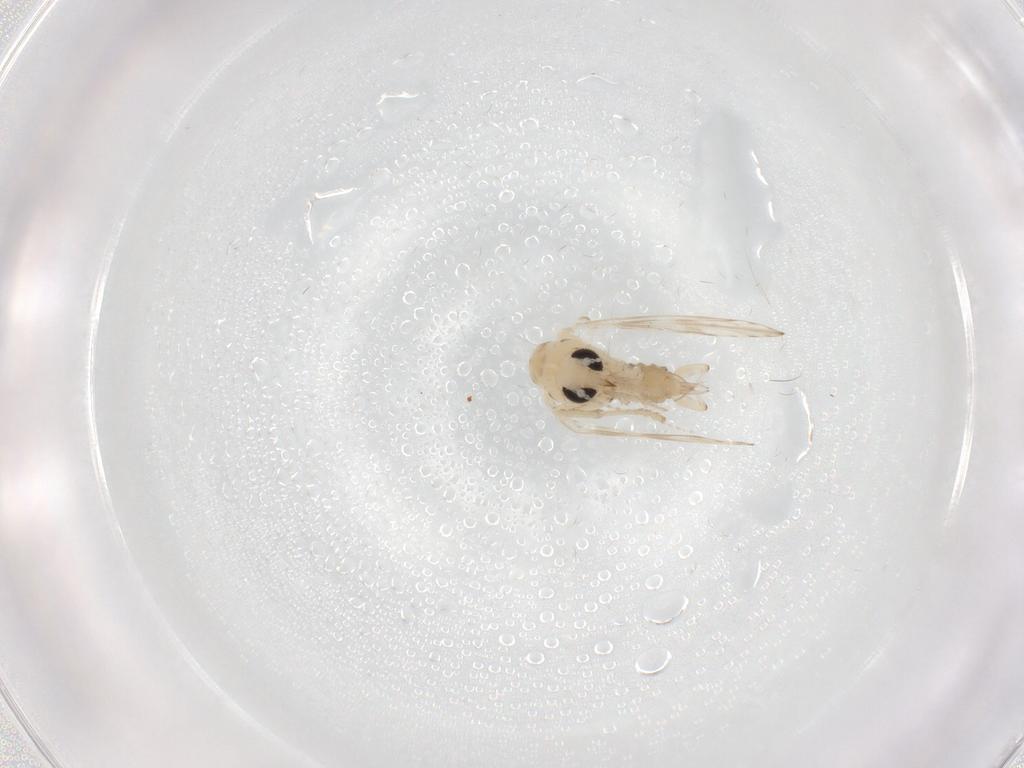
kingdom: Animalia
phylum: Arthropoda
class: Insecta
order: Diptera
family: Psychodidae
